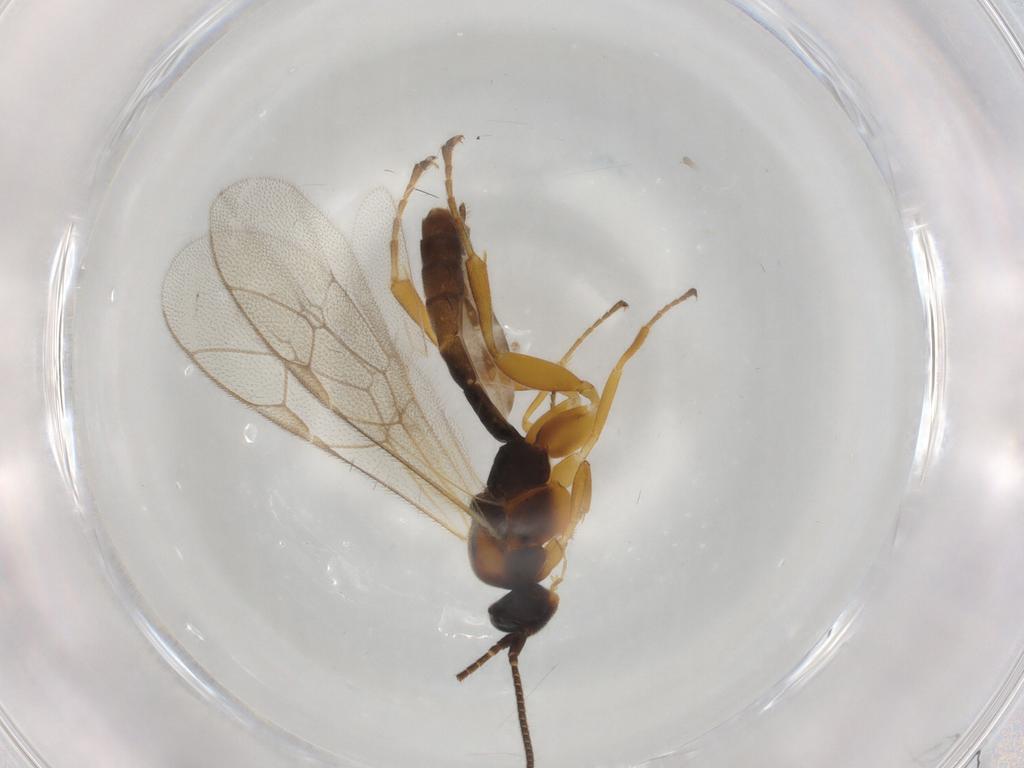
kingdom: Animalia
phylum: Arthropoda
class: Insecta
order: Hymenoptera
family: Ichneumonidae
